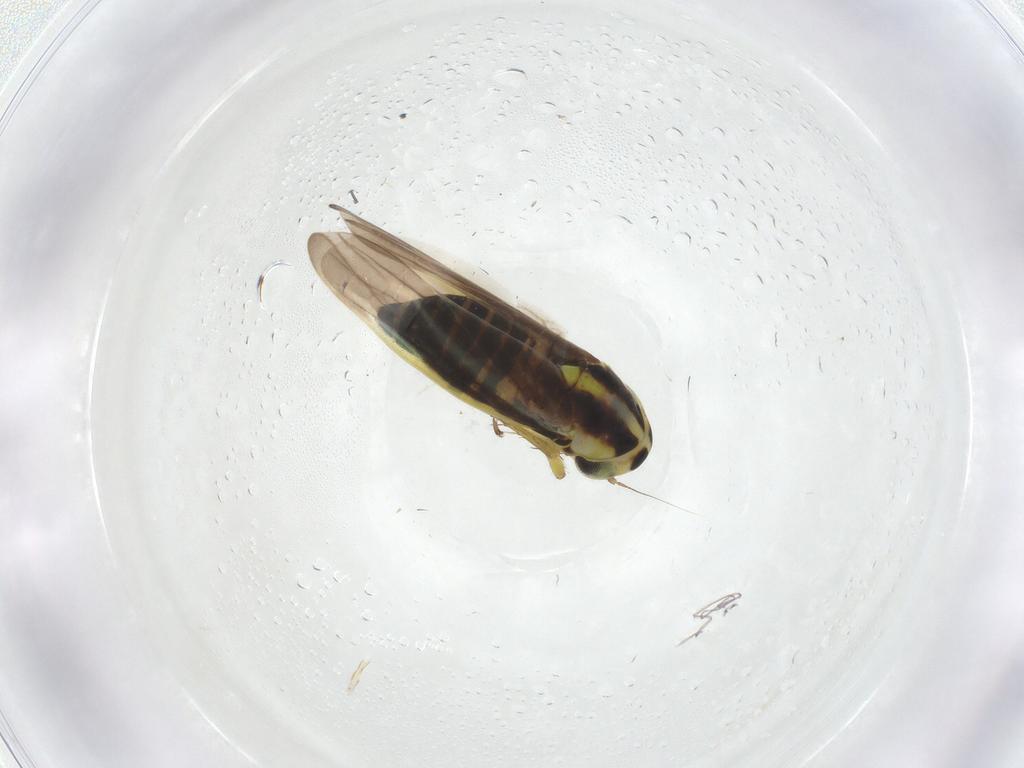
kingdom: Animalia
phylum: Arthropoda
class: Insecta
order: Hemiptera
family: Cicadellidae
